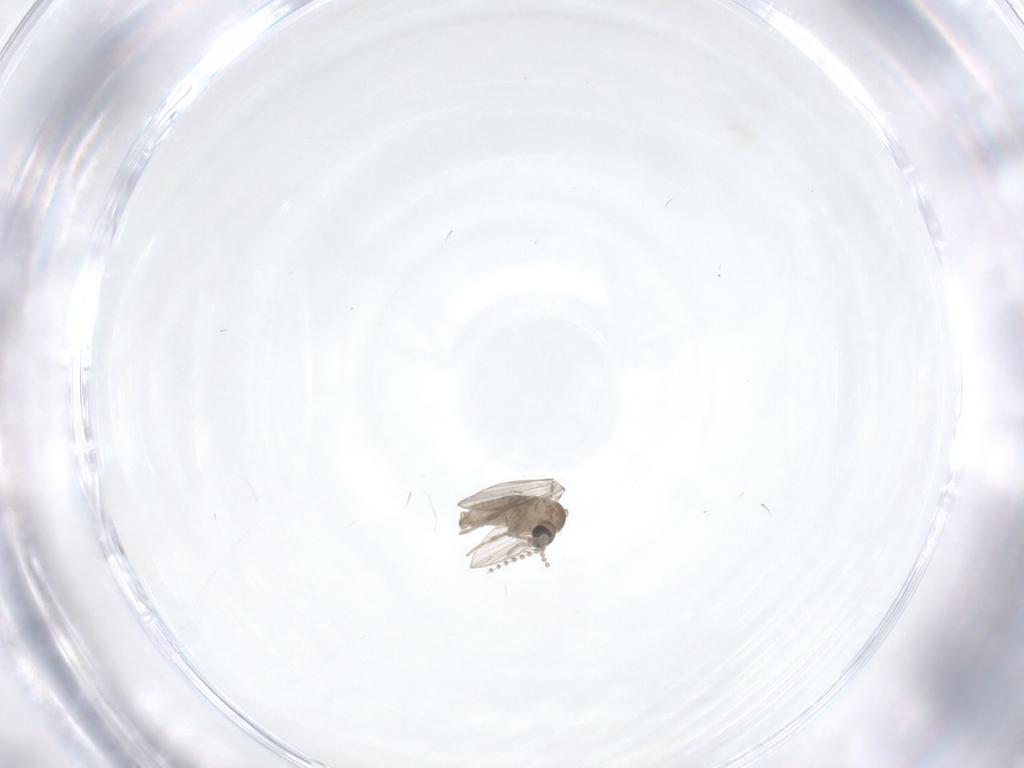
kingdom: Animalia
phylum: Arthropoda
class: Insecta
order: Diptera
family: Psychodidae
